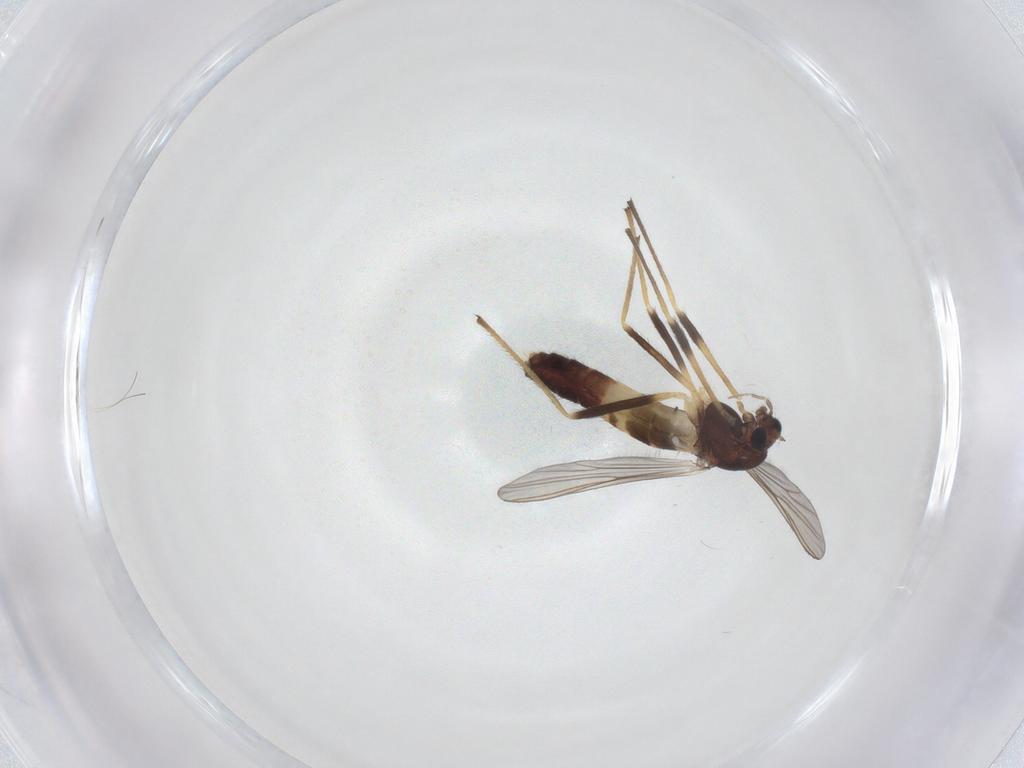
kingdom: Animalia
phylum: Arthropoda
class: Insecta
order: Diptera
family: Chironomidae
